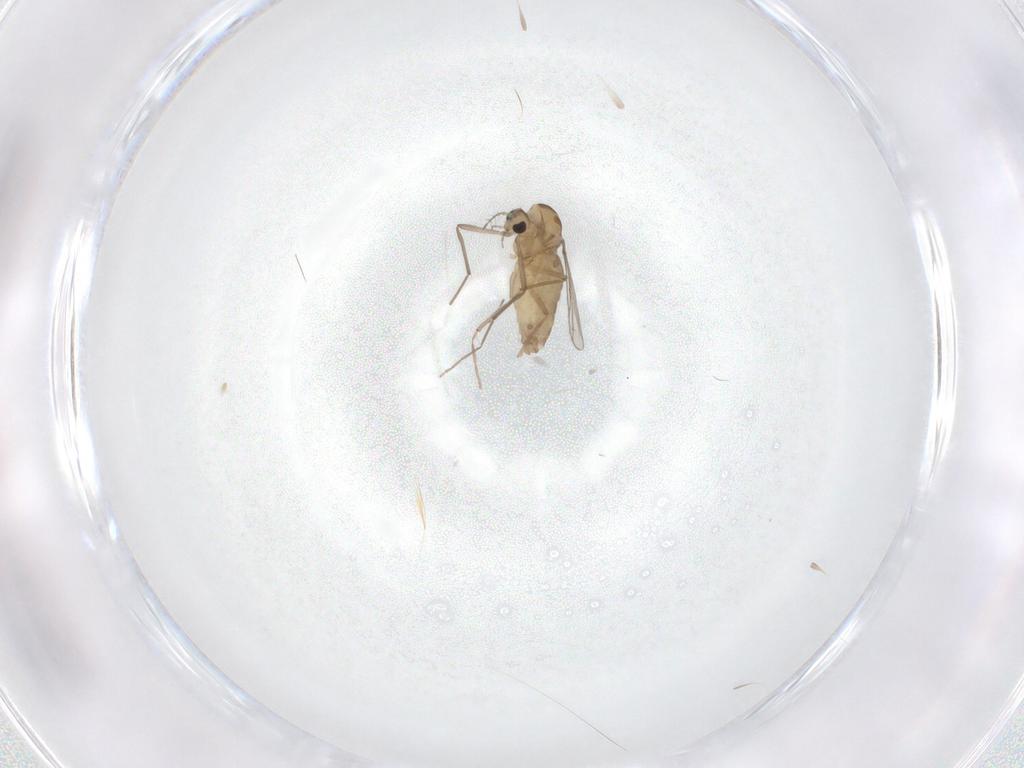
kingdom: Animalia
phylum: Arthropoda
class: Insecta
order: Diptera
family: Chironomidae
